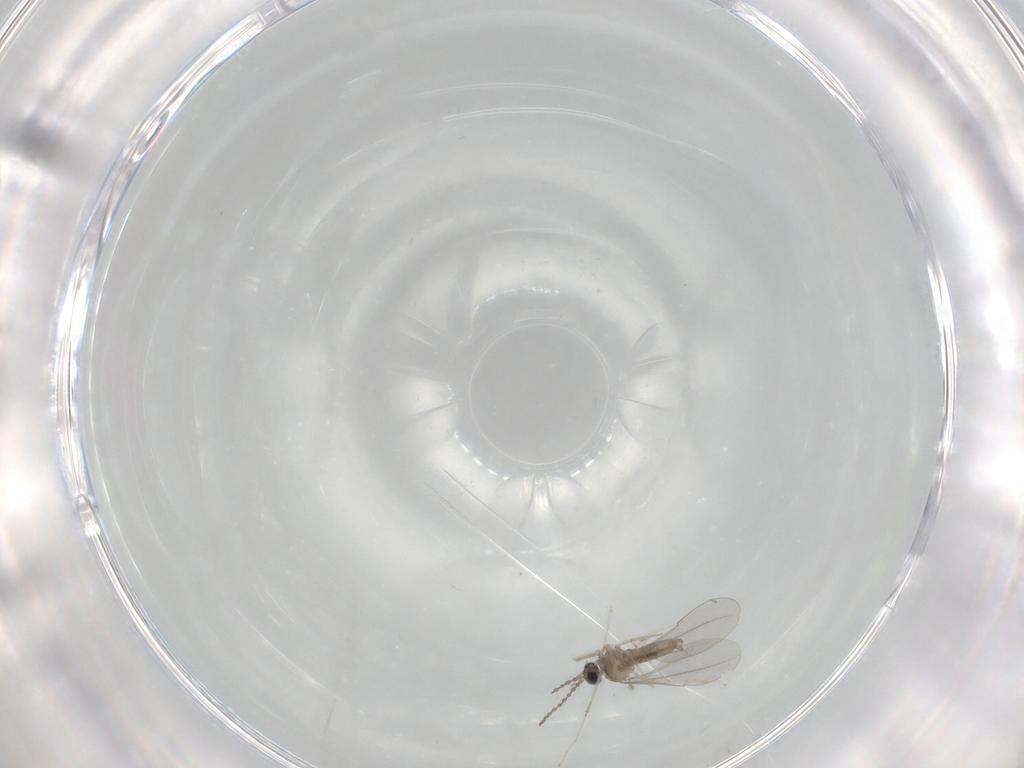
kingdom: Animalia
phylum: Arthropoda
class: Insecta
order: Diptera
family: Cecidomyiidae
